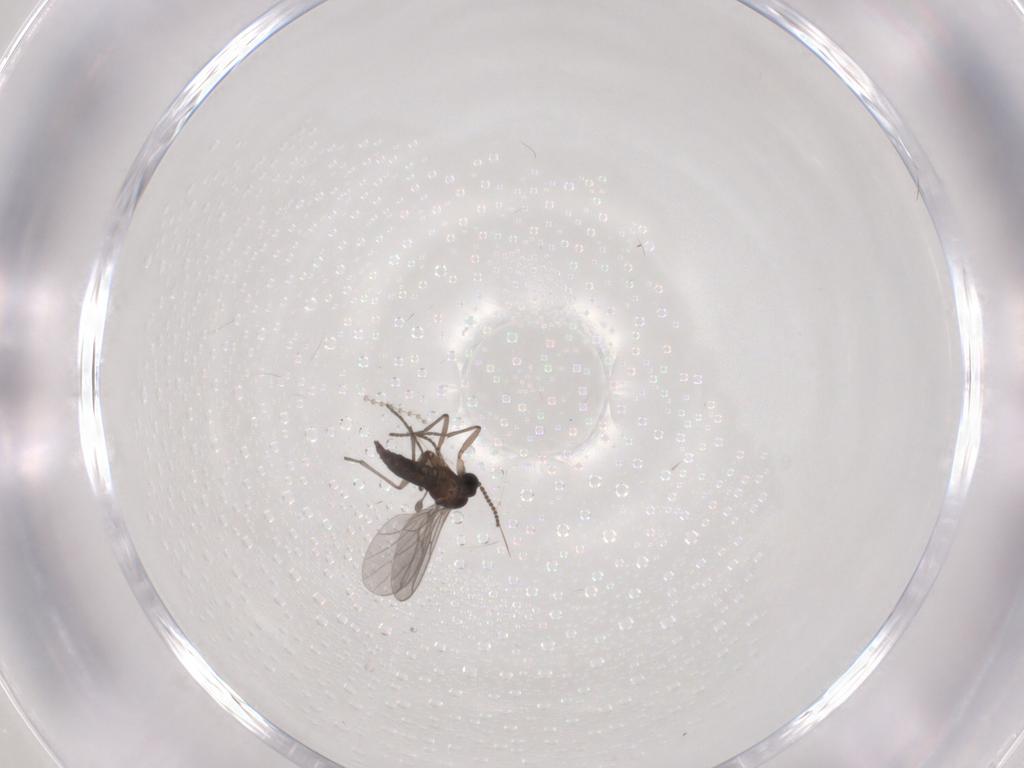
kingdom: Animalia
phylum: Arthropoda
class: Insecta
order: Diptera
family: Sciaridae
